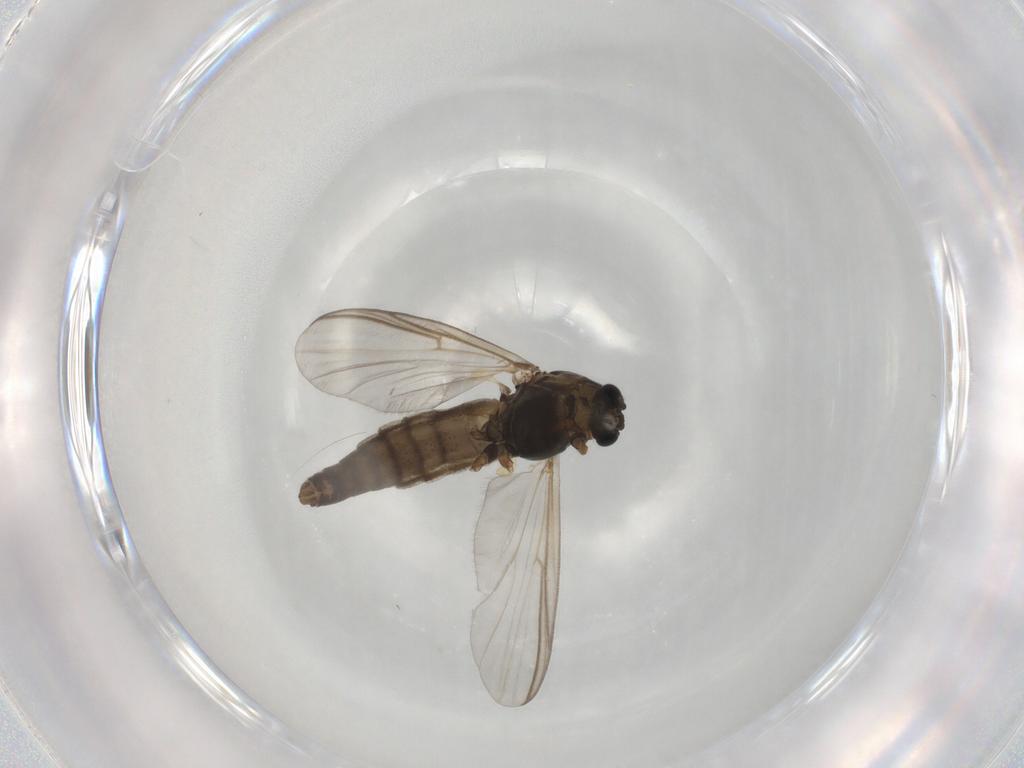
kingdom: Animalia
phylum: Arthropoda
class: Insecta
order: Diptera
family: Chironomidae
